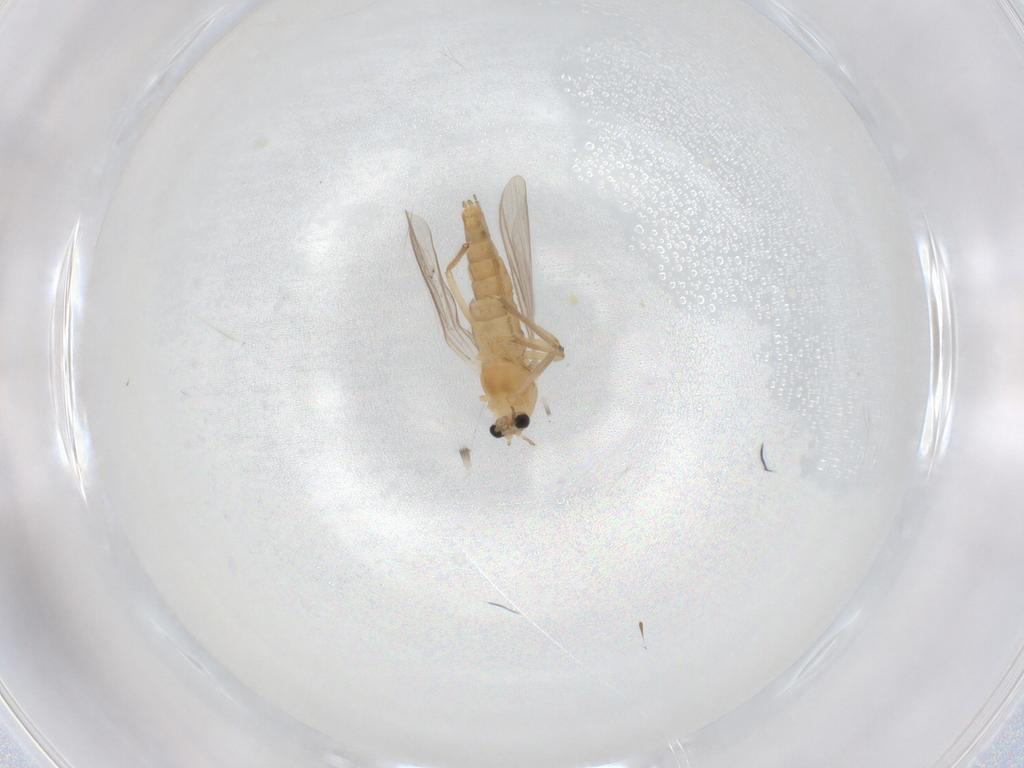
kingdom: Animalia
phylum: Arthropoda
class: Insecta
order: Diptera
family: Chironomidae
